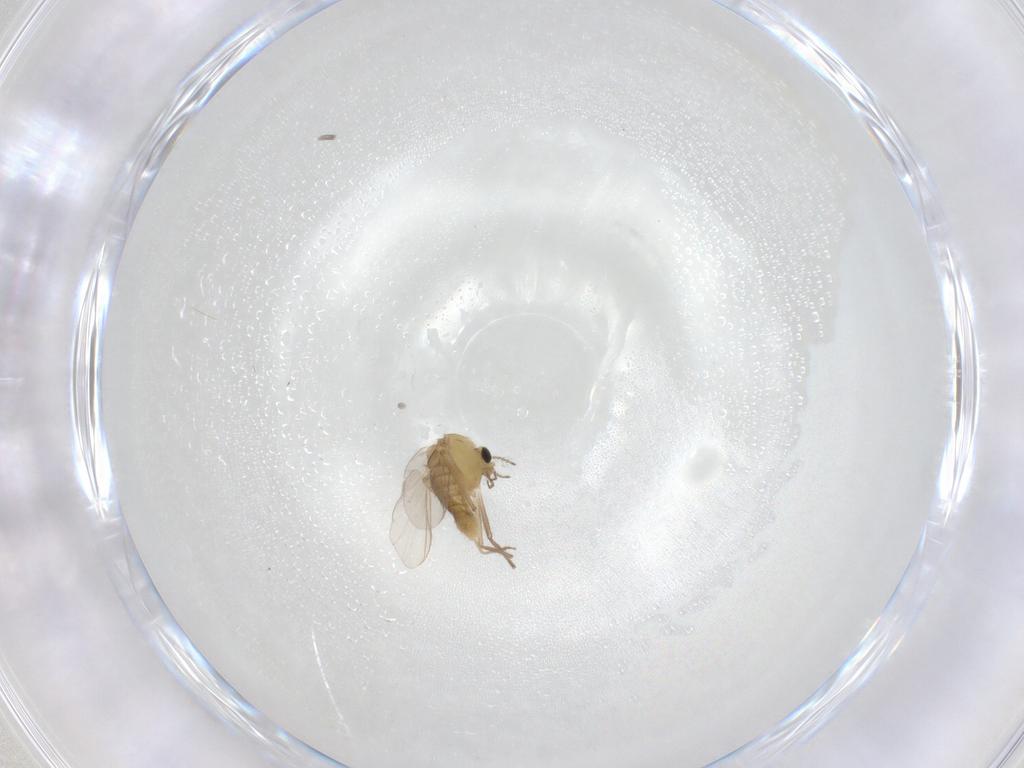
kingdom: Animalia
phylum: Arthropoda
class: Insecta
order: Diptera
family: Chironomidae
